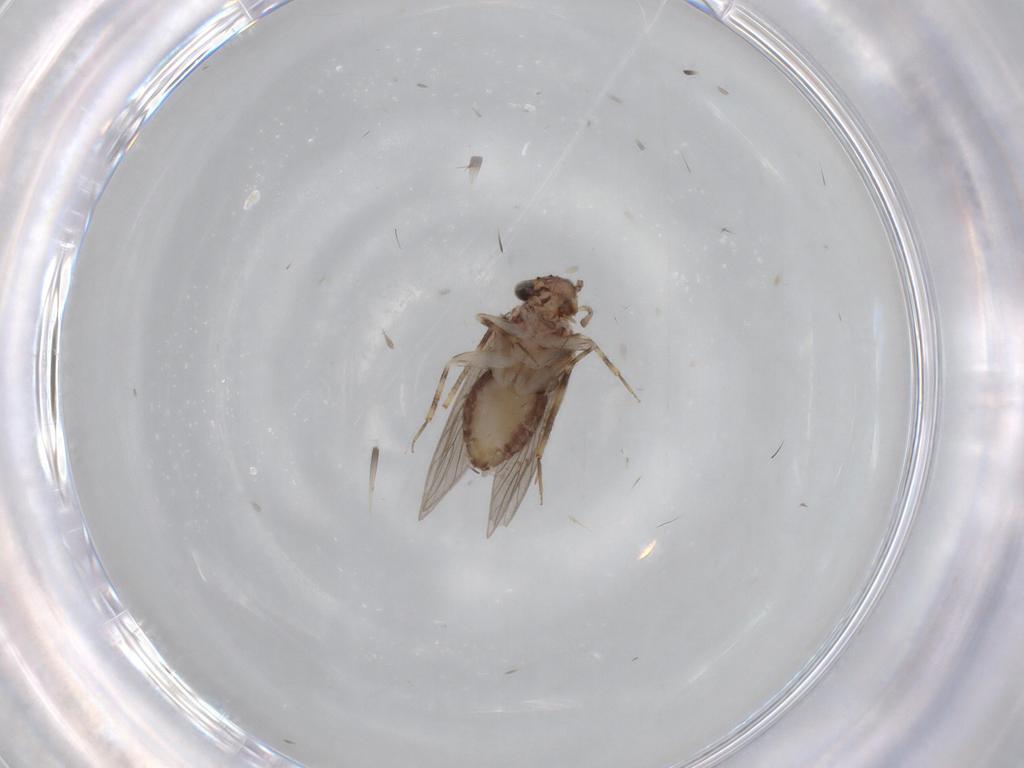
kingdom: Animalia
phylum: Arthropoda
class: Insecta
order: Psocodea
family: Lepidopsocidae
